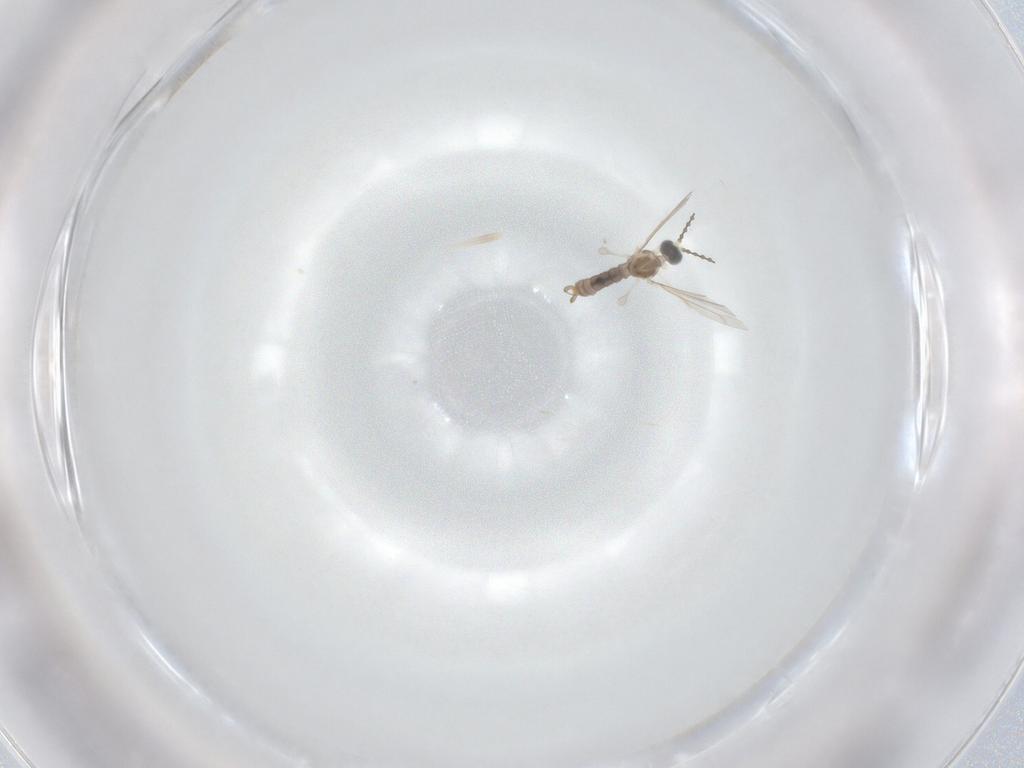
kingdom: Animalia
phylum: Arthropoda
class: Insecta
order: Diptera
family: Cecidomyiidae
